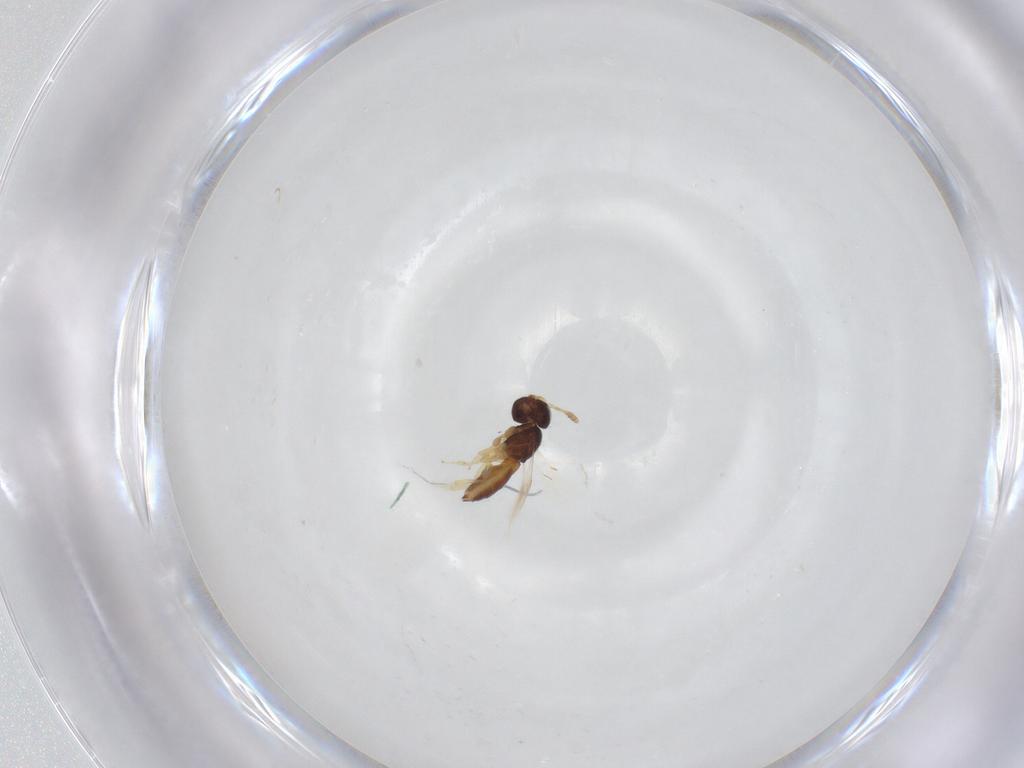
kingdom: Animalia
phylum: Arthropoda
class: Insecta
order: Hymenoptera
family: Scelionidae
